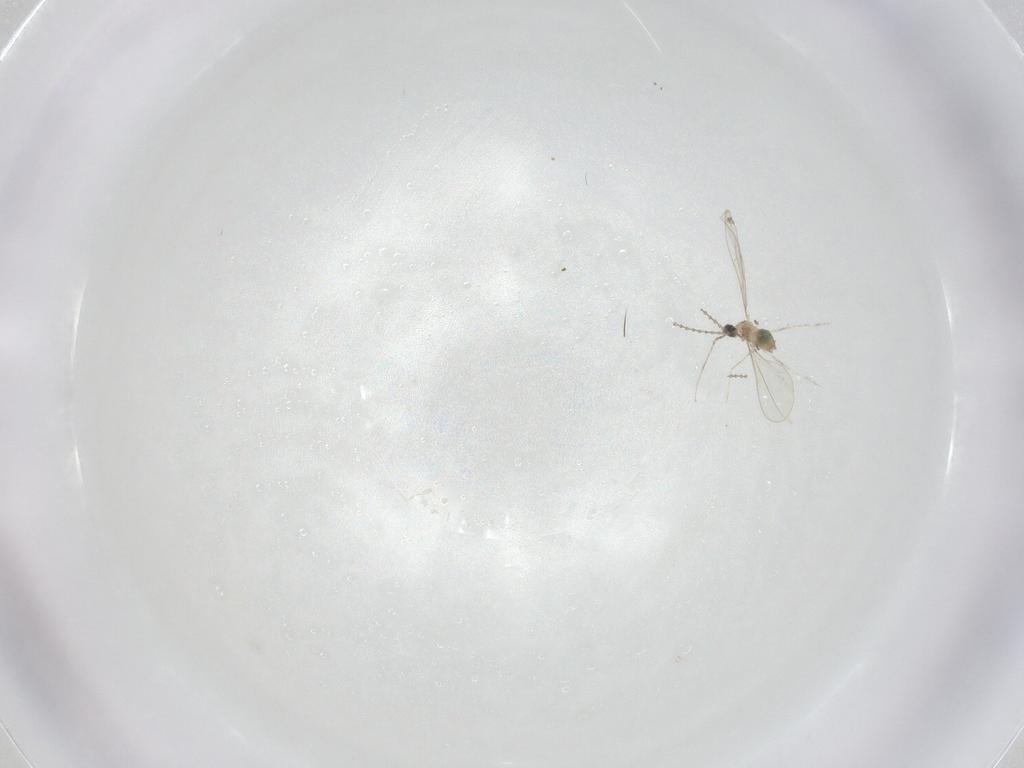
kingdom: Animalia
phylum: Arthropoda
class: Insecta
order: Diptera
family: Cecidomyiidae
